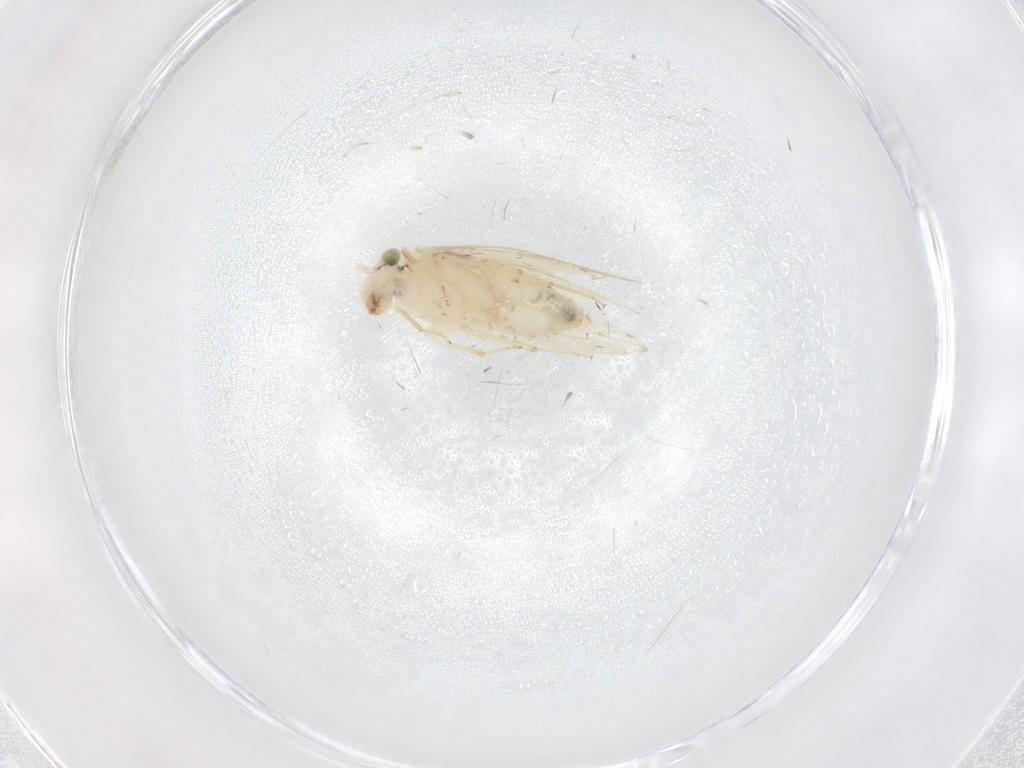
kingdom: Animalia
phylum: Arthropoda
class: Insecta
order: Psocodea
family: Lepidopsocidae
